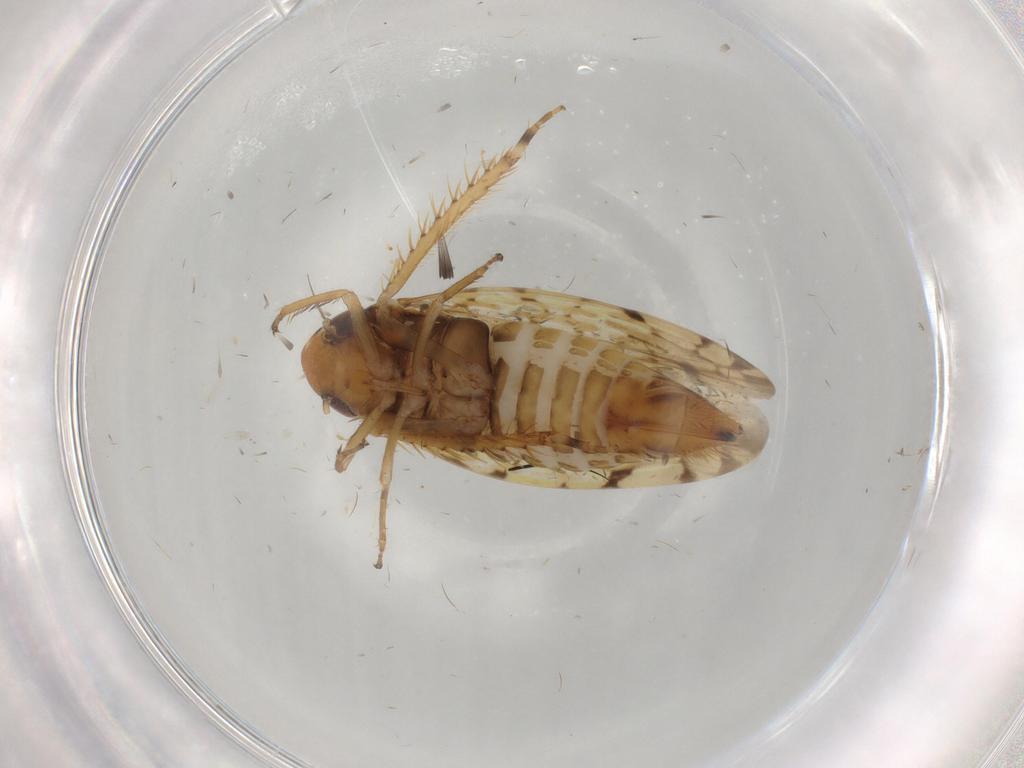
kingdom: Animalia
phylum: Arthropoda
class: Insecta
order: Hemiptera
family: Cicadellidae
